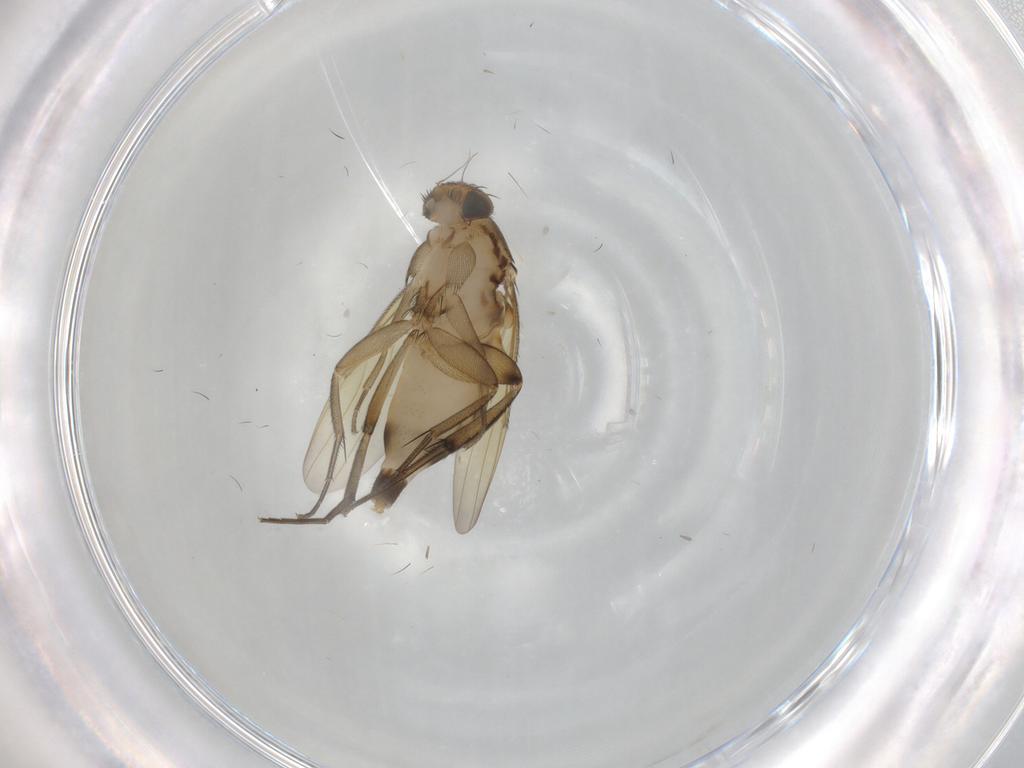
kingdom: Animalia
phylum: Arthropoda
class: Insecta
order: Diptera
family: Phoridae
